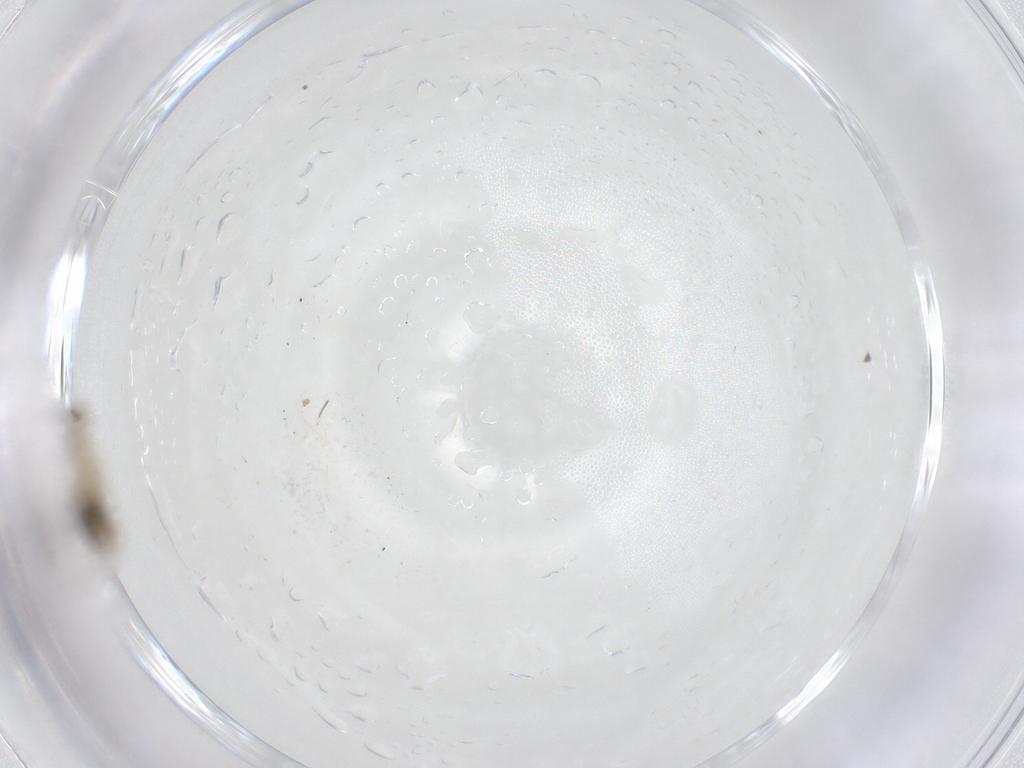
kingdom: Animalia
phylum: Arthropoda
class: Insecta
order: Diptera
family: Chironomidae
